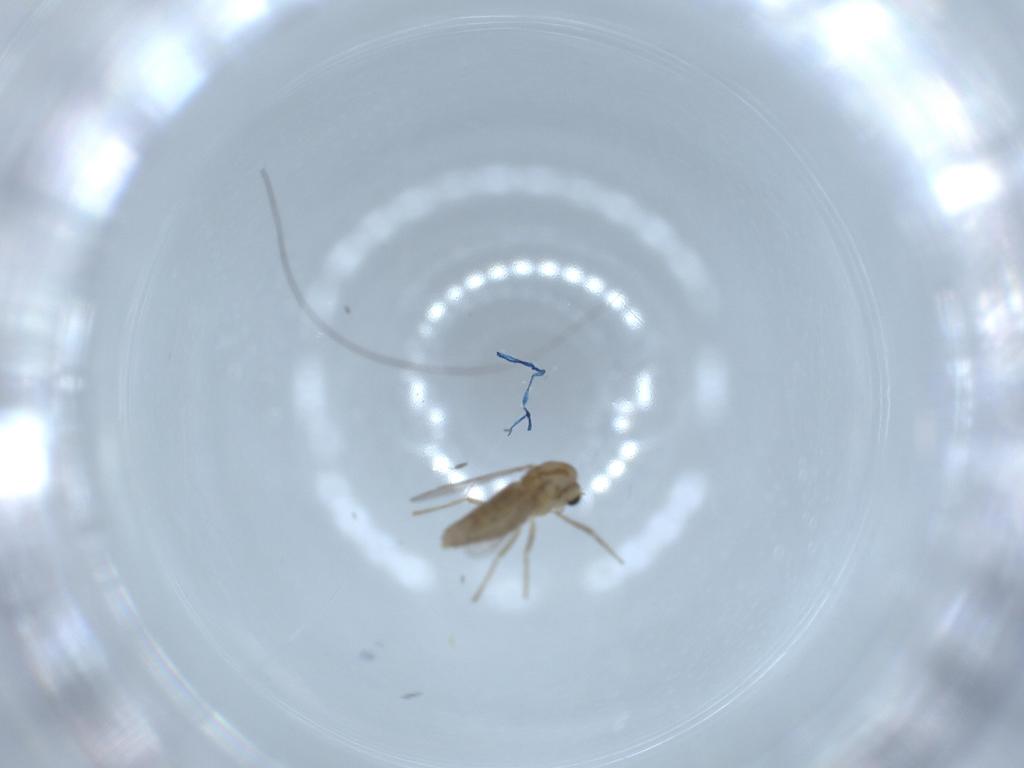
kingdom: Animalia
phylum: Arthropoda
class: Insecta
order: Diptera
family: Chironomidae
